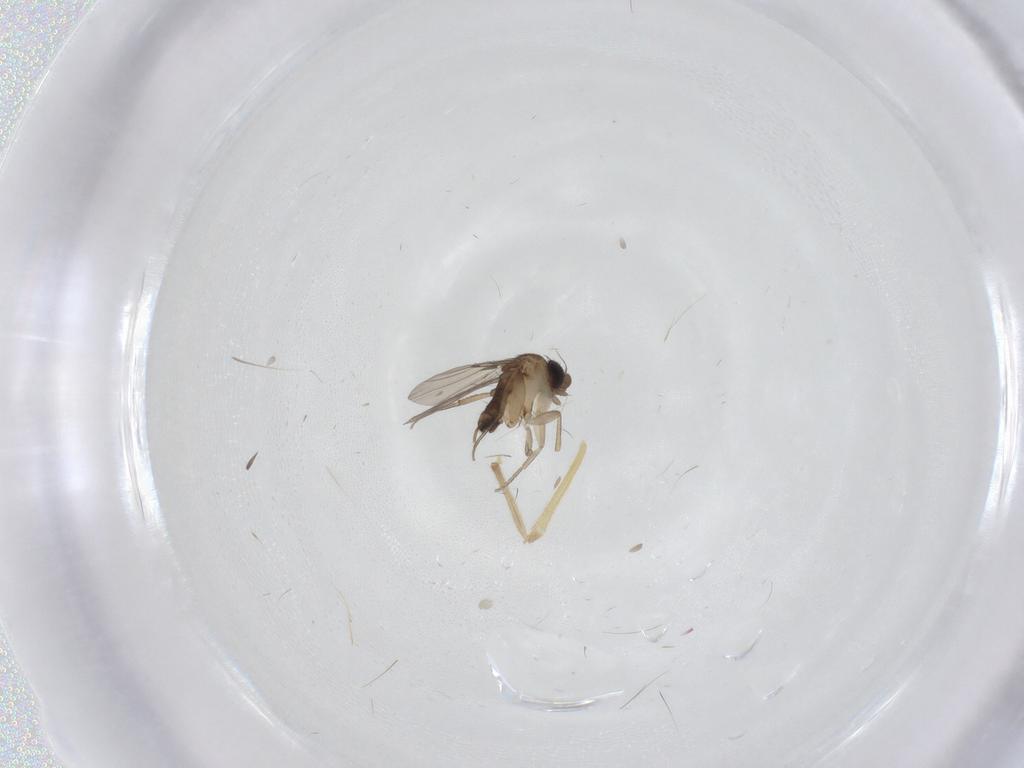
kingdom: Animalia
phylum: Arthropoda
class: Insecta
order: Diptera
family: Phoridae
